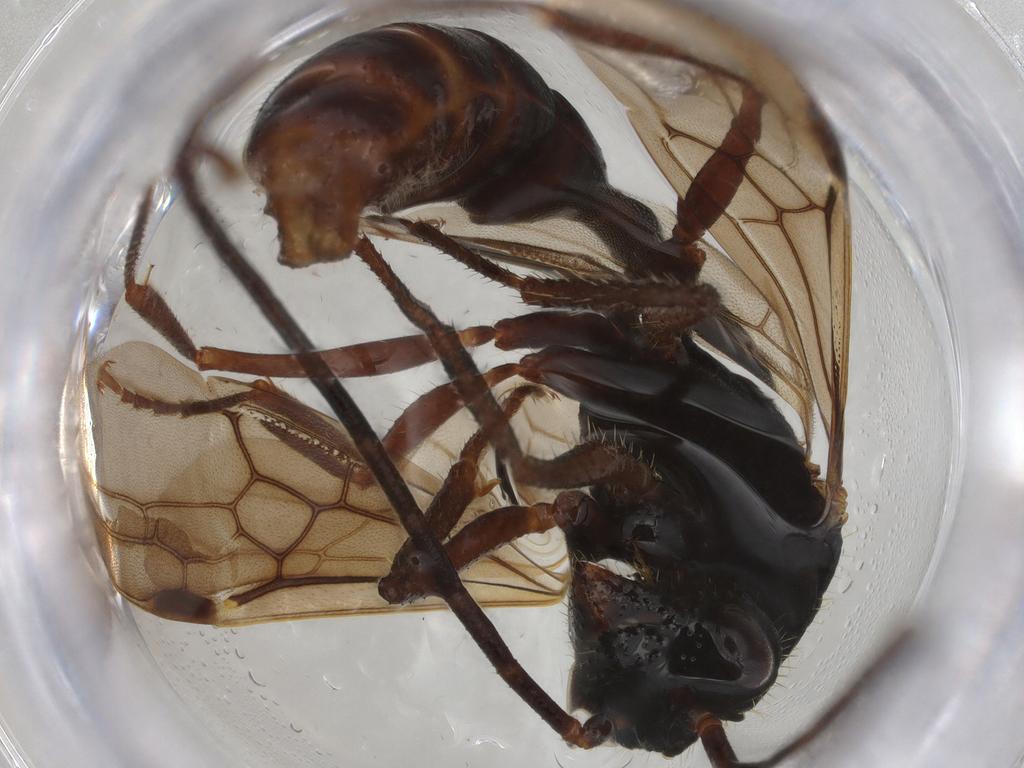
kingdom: Animalia
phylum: Arthropoda
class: Insecta
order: Hymenoptera
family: Formicidae
